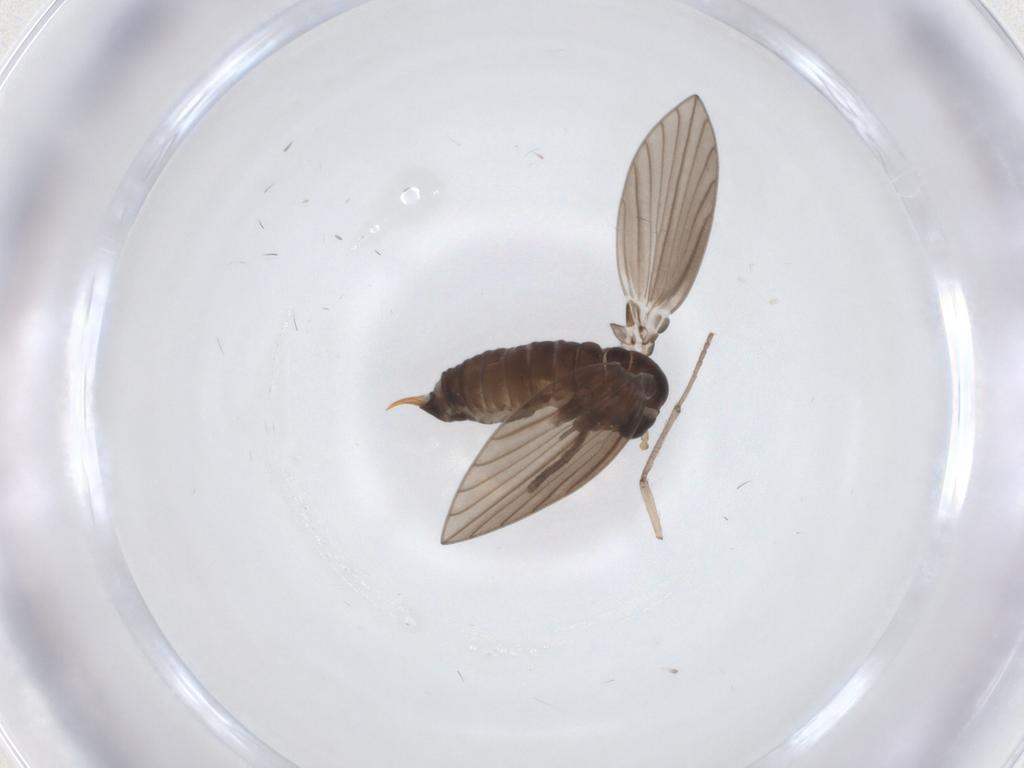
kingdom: Animalia
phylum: Arthropoda
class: Insecta
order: Diptera
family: Psychodidae
